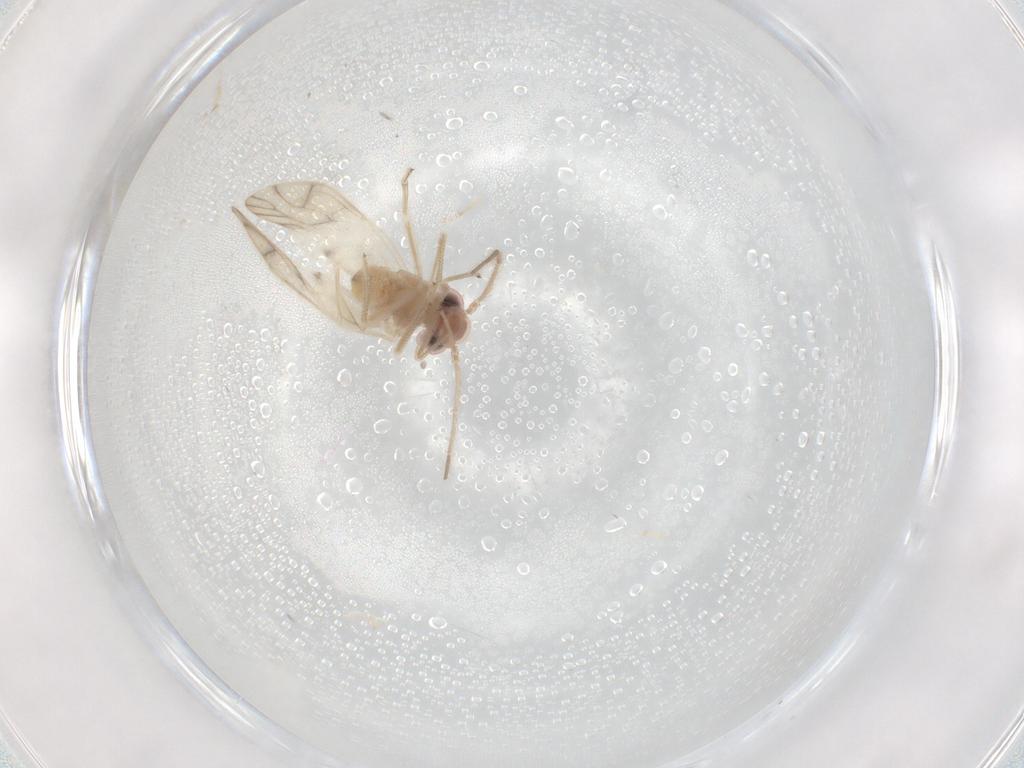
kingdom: Animalia
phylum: Arthropoda
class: Insecta
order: Psocodea
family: Caeciliusidae
